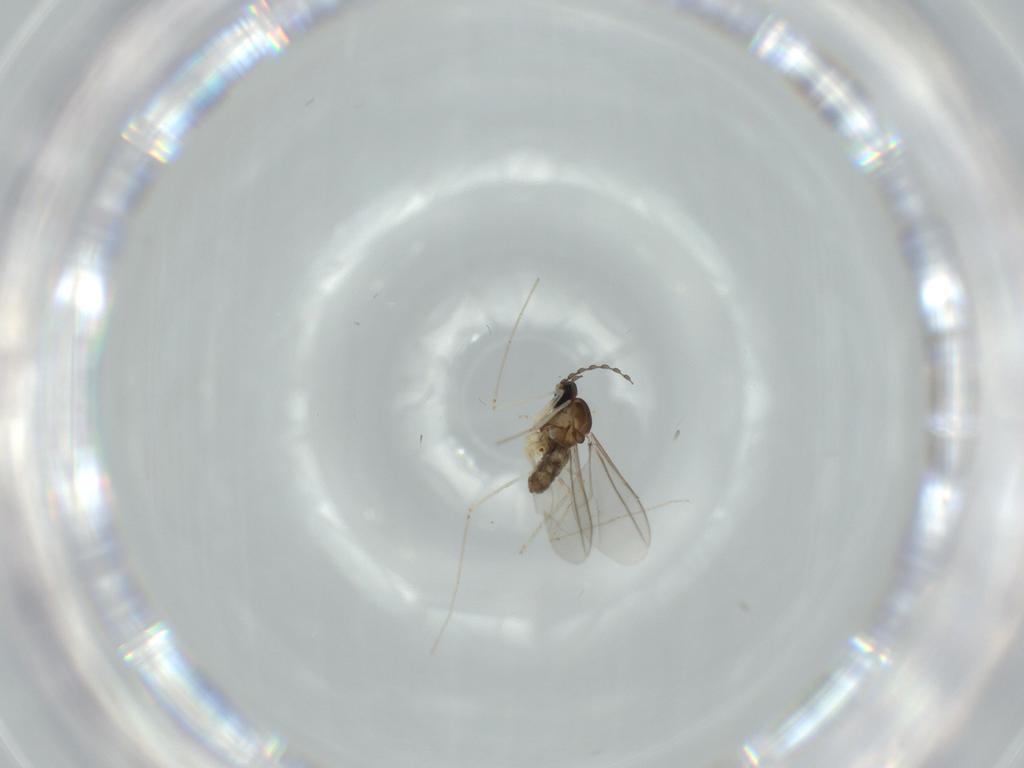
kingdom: Animalia
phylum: Arthropoda
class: Insecta
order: Diptera
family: Cecidomyiidae
